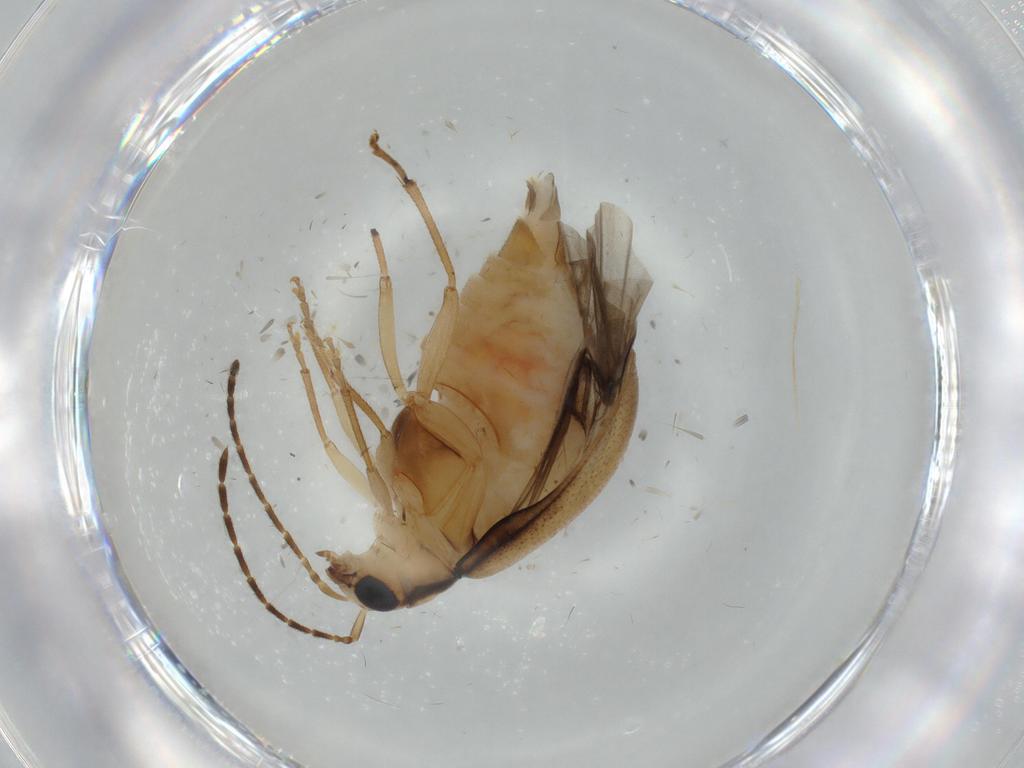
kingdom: Animalia
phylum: Arthropoda
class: Insecta
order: Coleoptera
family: Chrysomelidae
